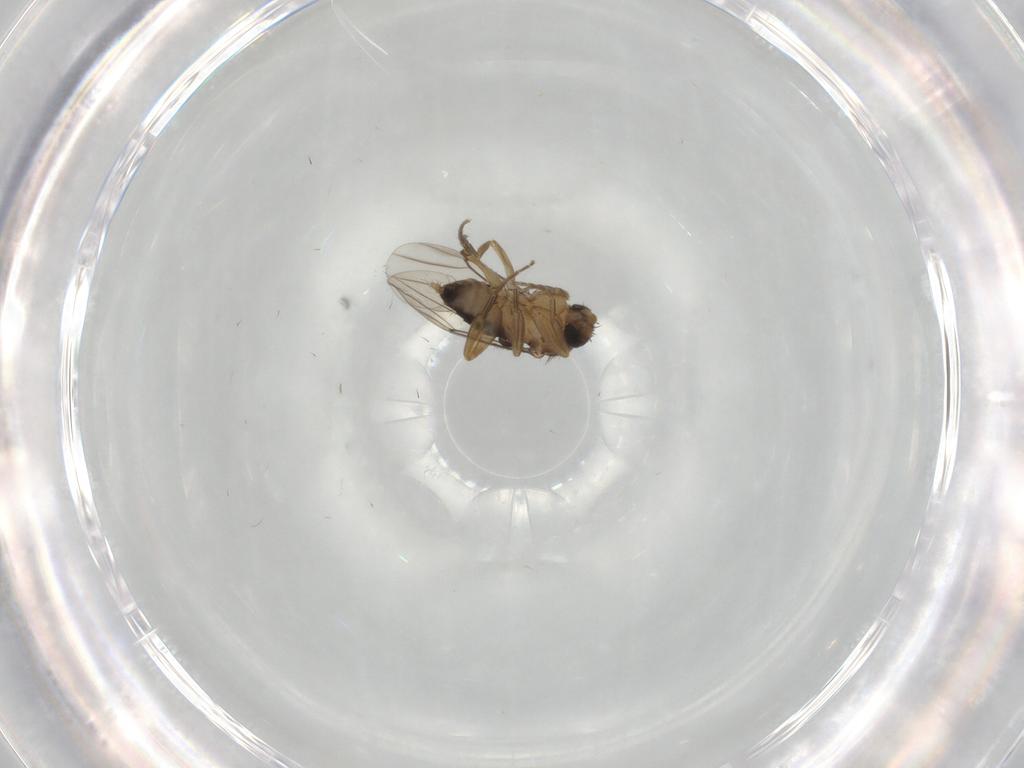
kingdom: Animalia
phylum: Arthropoda
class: Insecta
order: Diptera
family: Phoridae
